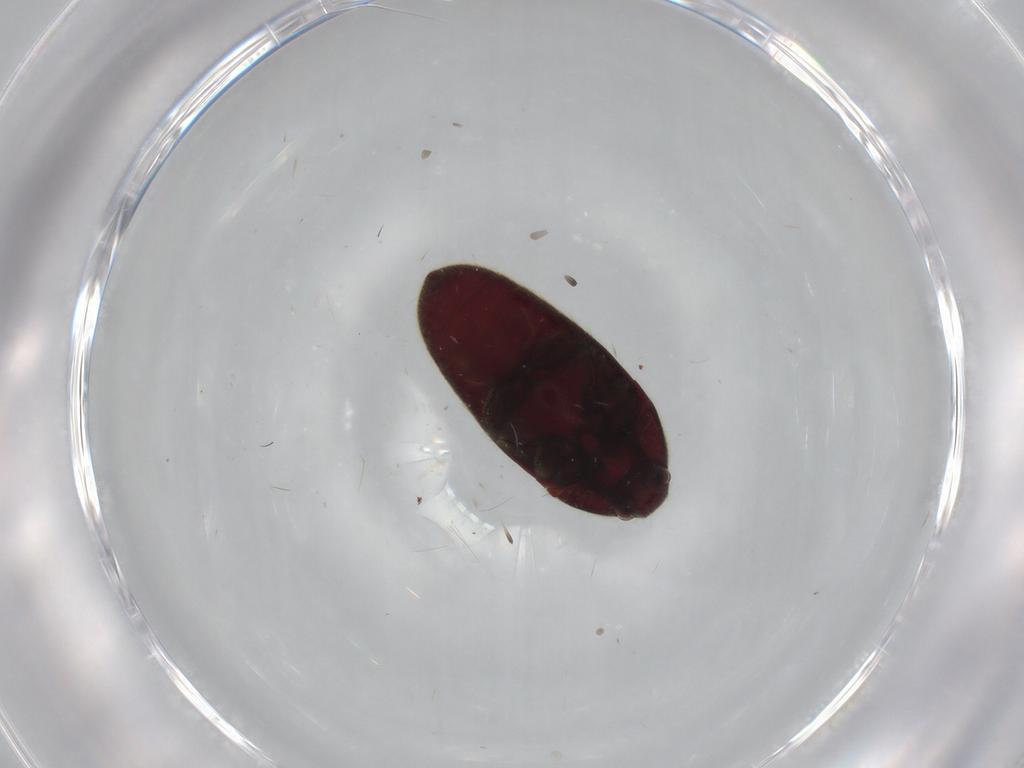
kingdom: Animalia
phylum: Arthropoda
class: Insecta
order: Coleoptera
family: Throscidae
